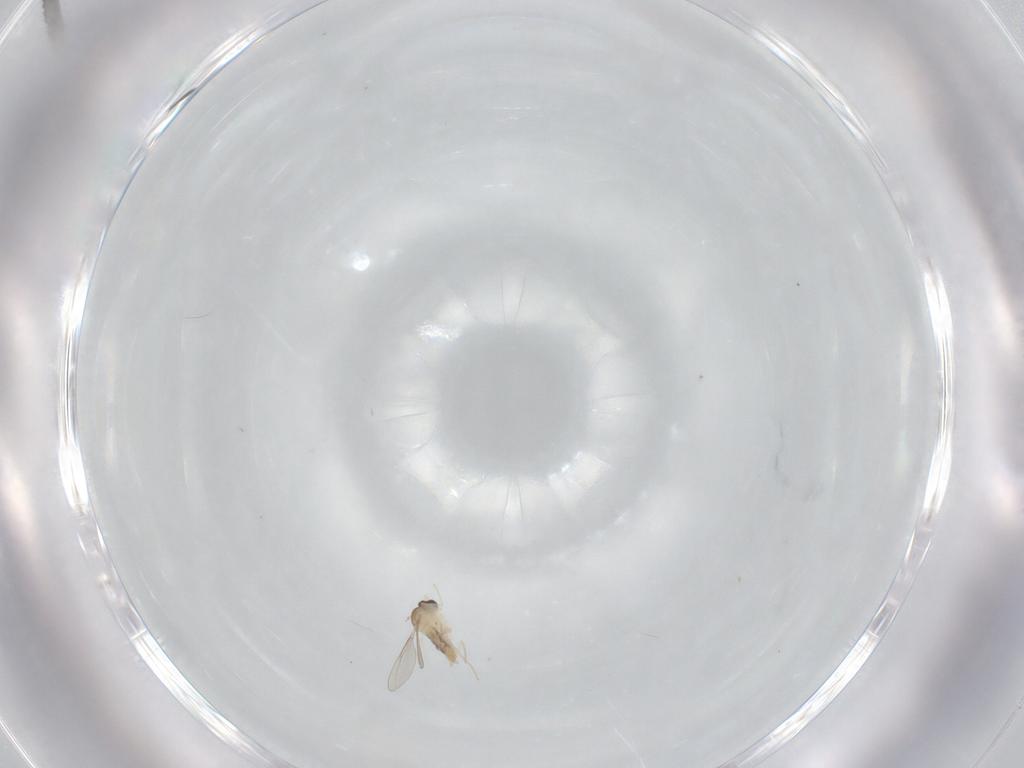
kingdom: Animalia
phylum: Arthropoda
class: Insecta
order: Diptera
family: Cecidomyiidae
